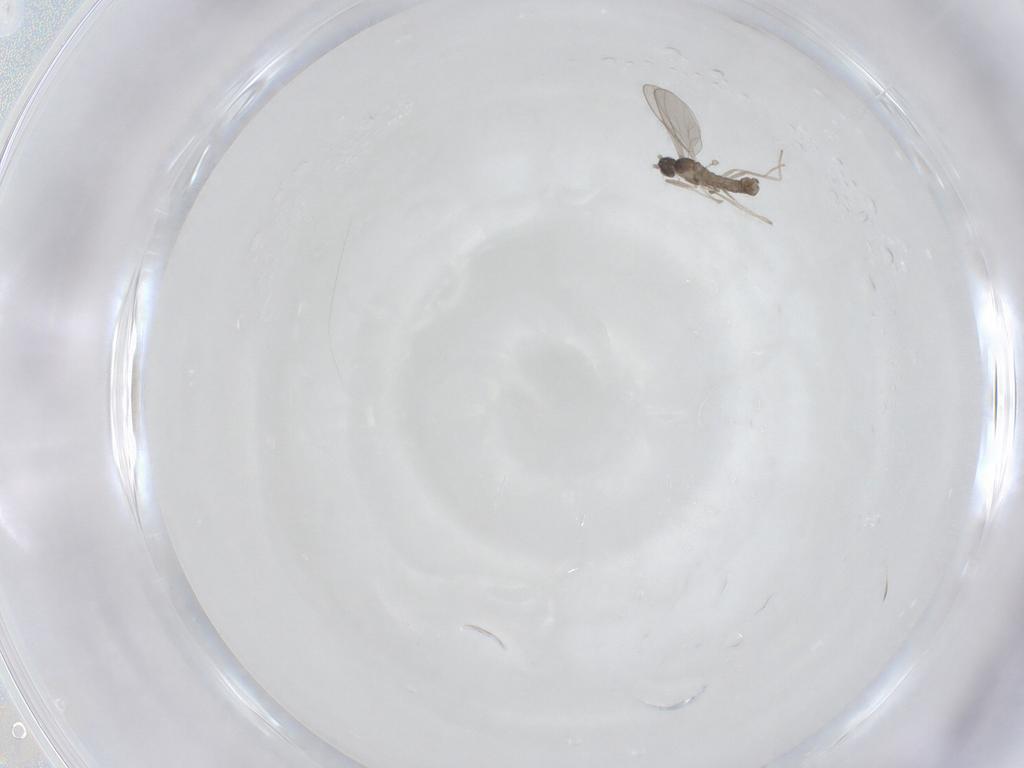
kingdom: Animalia
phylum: Arthropoda
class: Insecta
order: Diptera
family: Cecidomyiidae
